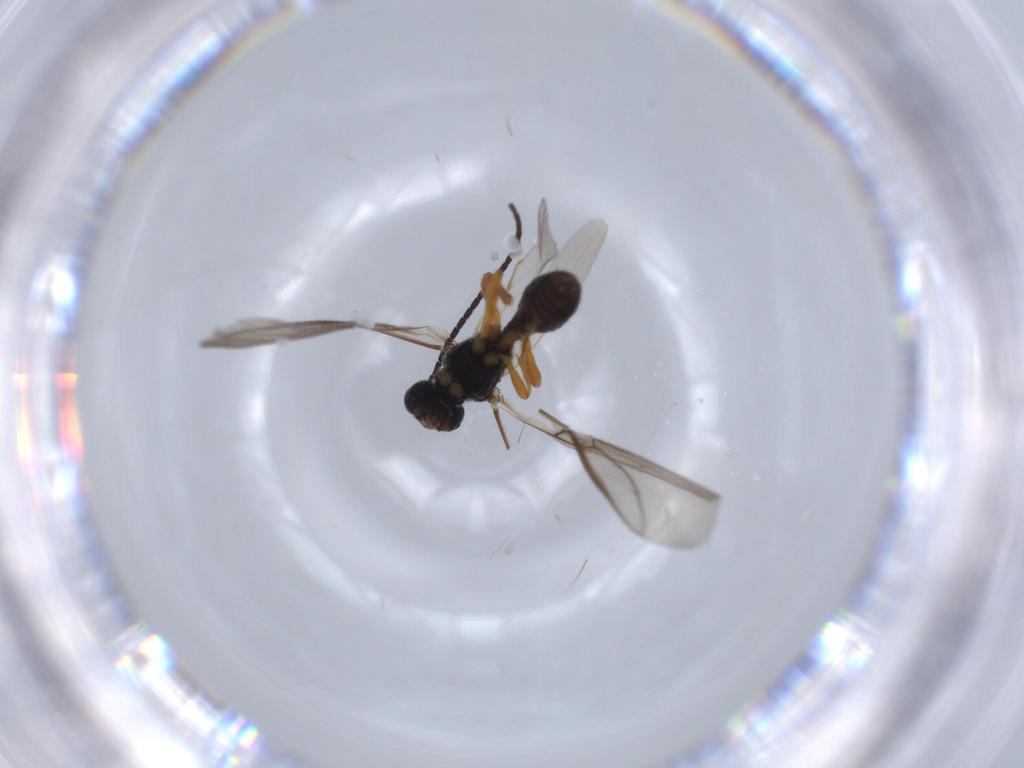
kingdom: Animalia
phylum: Arthropoda
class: Insecta
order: Hymenoptera
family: Braconidae
